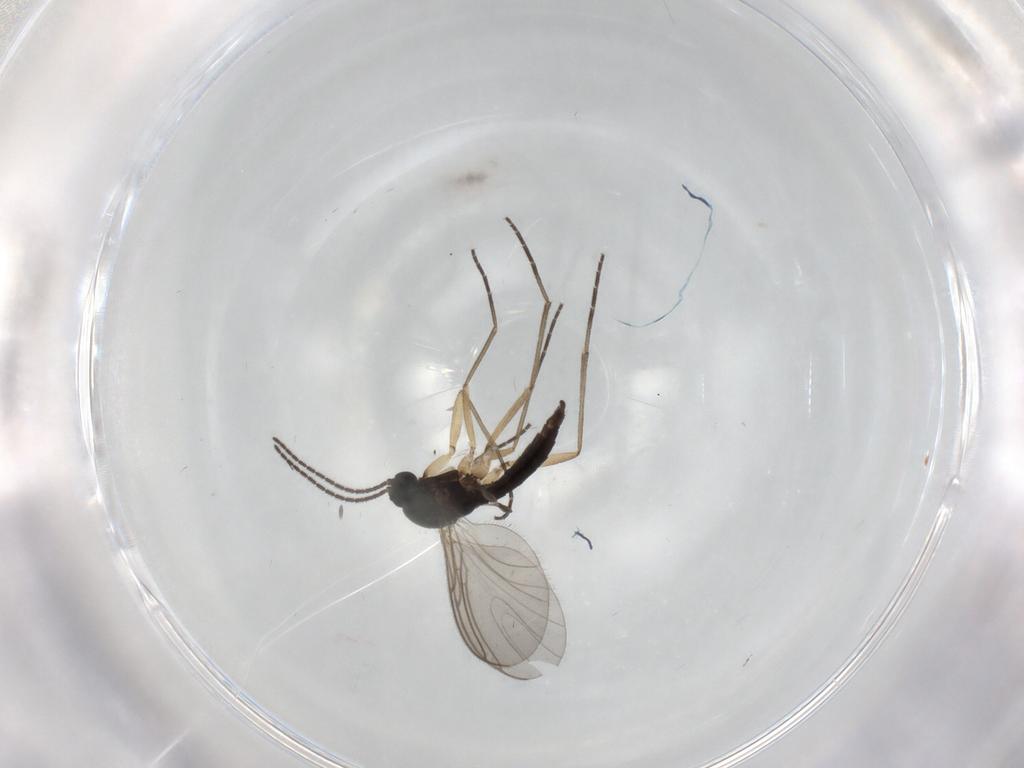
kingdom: Animalia
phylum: Arthropoda
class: Insecta
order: Diptera
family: Sciaridae
